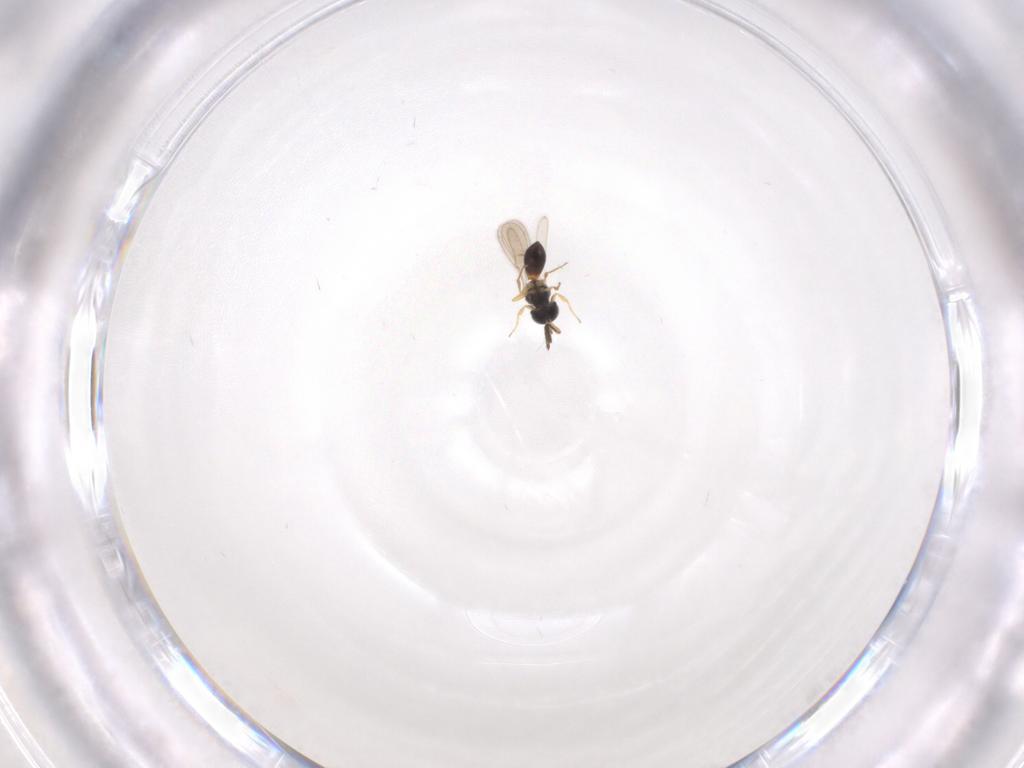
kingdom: Animalia
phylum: Arthropoda
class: Insecta
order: Hymenoptera
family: Scelionidae
